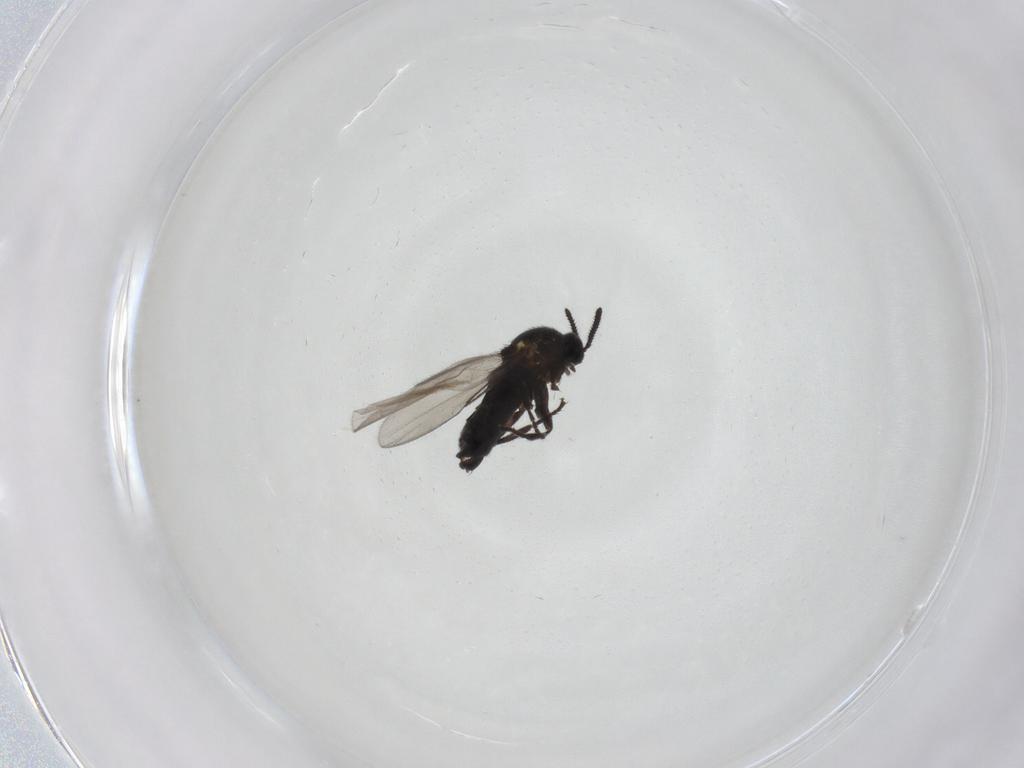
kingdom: Animalia
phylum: Arthropoda
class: Insecta
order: Diptera
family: Scatopsidae
